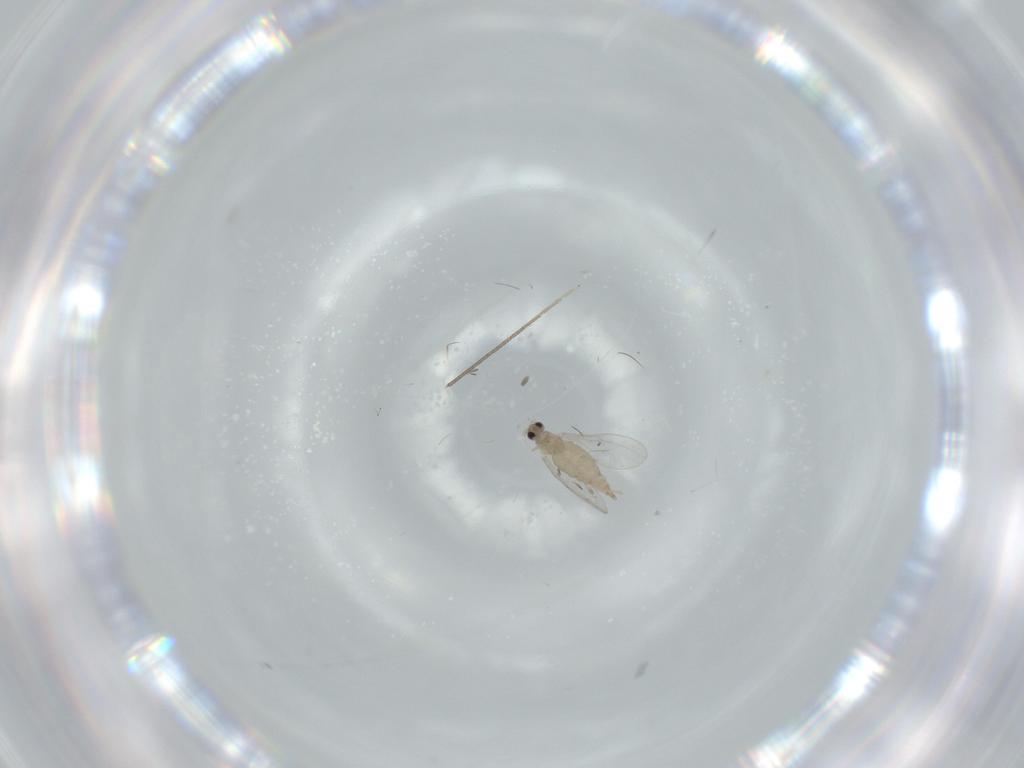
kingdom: Animalia
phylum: Arthropoda
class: Insecta
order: Diptera
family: Cecidomyiidae
